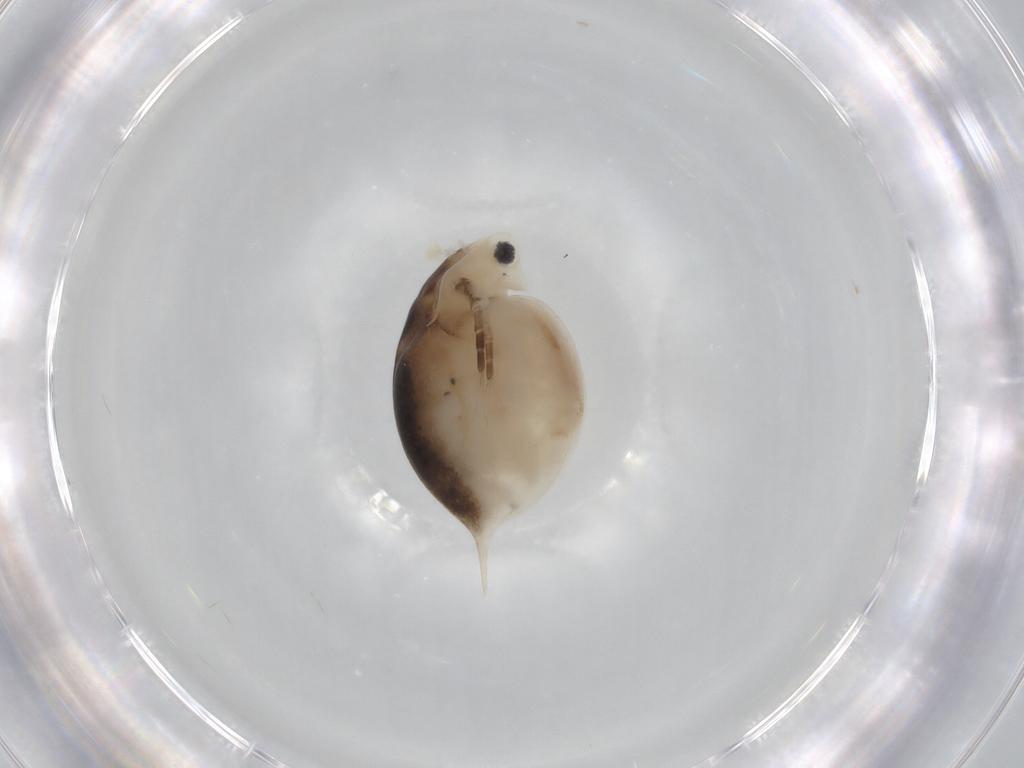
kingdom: Animalia
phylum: Arthropoda
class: Branchiopoda
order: Diplostraca
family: Daphniidae
